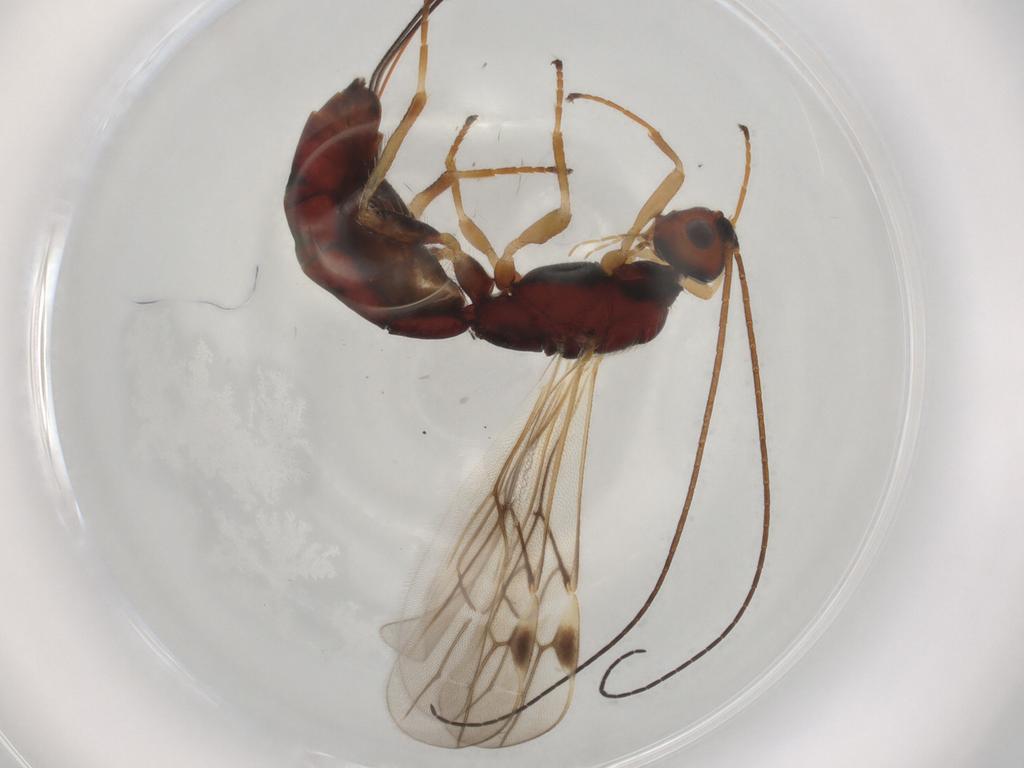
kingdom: Animalia
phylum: Arthropoda
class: Insecta
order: Hymenoptera
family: Braconidae
